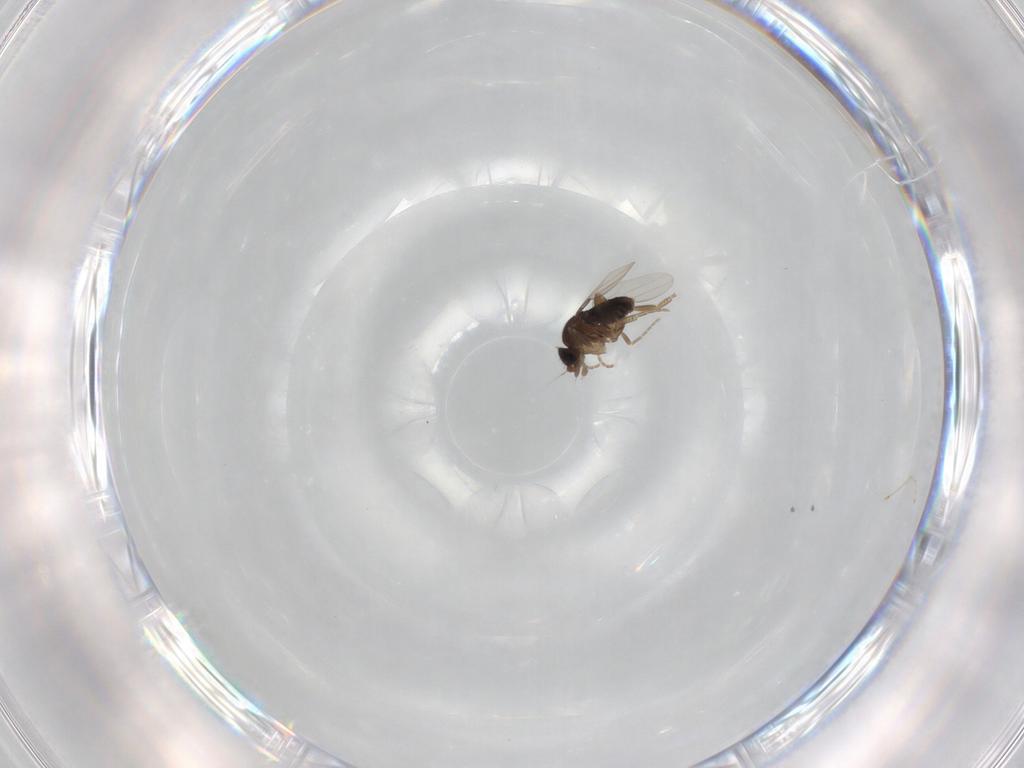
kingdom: Animalia
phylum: Arthropoda
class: Insecta
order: Diptera
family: Phoridae
